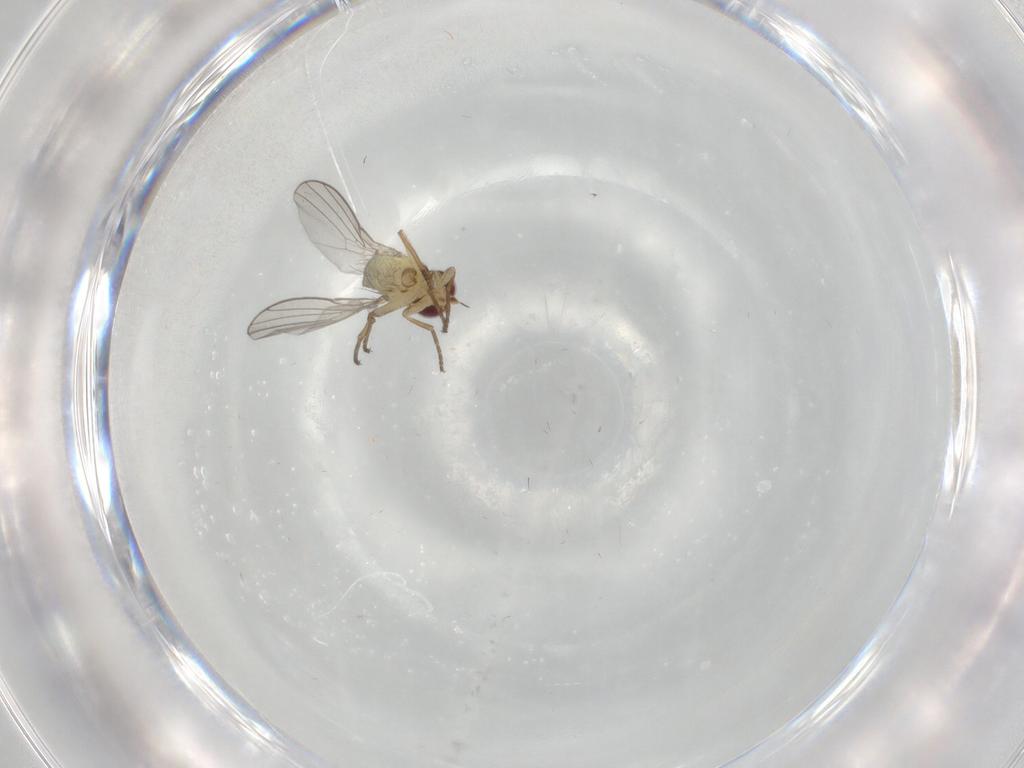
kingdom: Animalia
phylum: Arthropoda
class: Insecta
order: Diptera
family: Agromyzidae
